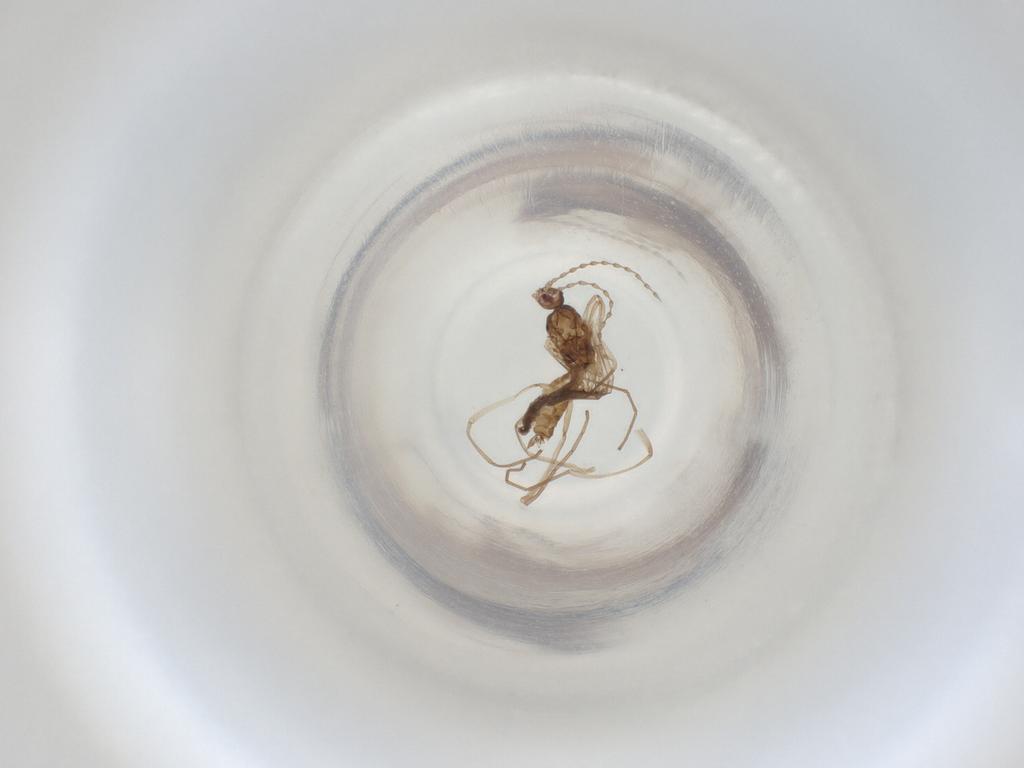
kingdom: Animalia
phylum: Arthropoda
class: Insecta
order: Diptera
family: Cecidomyiidae
